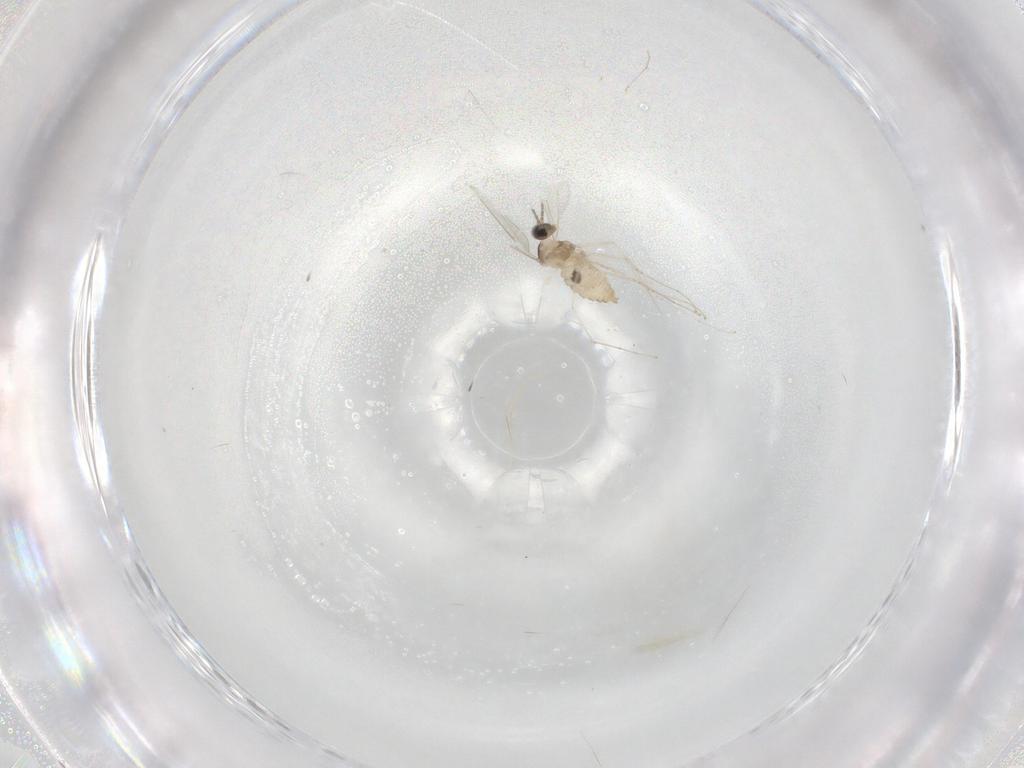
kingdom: Animalia
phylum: Arthropoda
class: Insecta
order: Diptera
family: Cecidomyiidae
